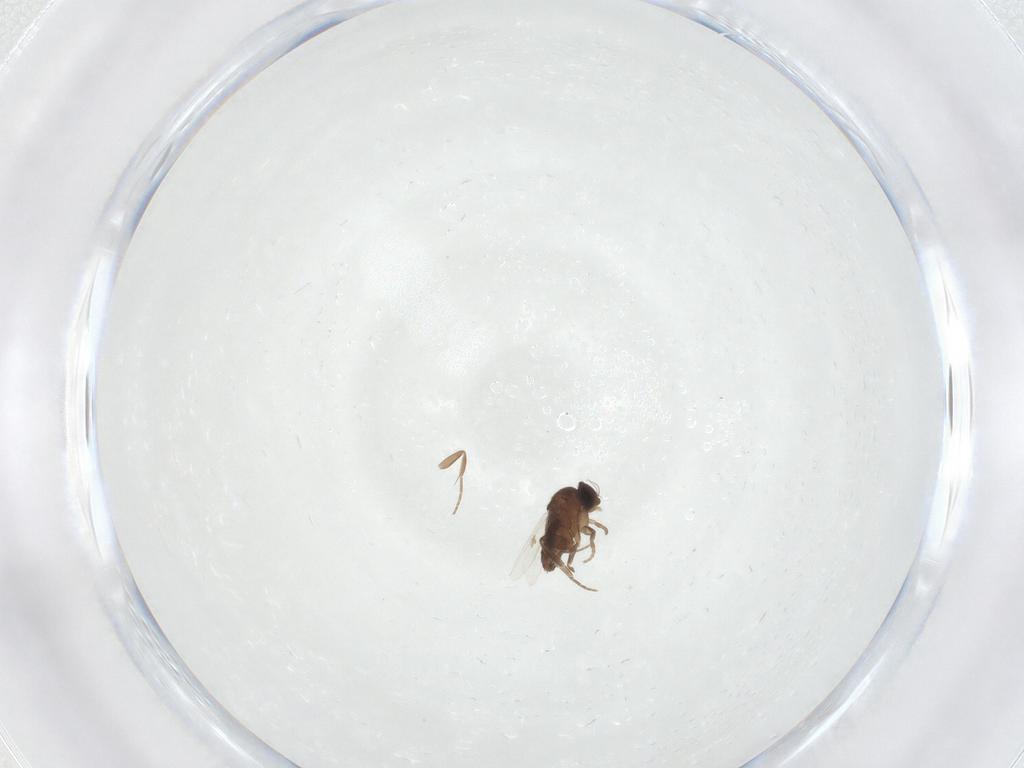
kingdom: Animalia
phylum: Arthropoda
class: Insecta
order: Diptera
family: Phoridae
